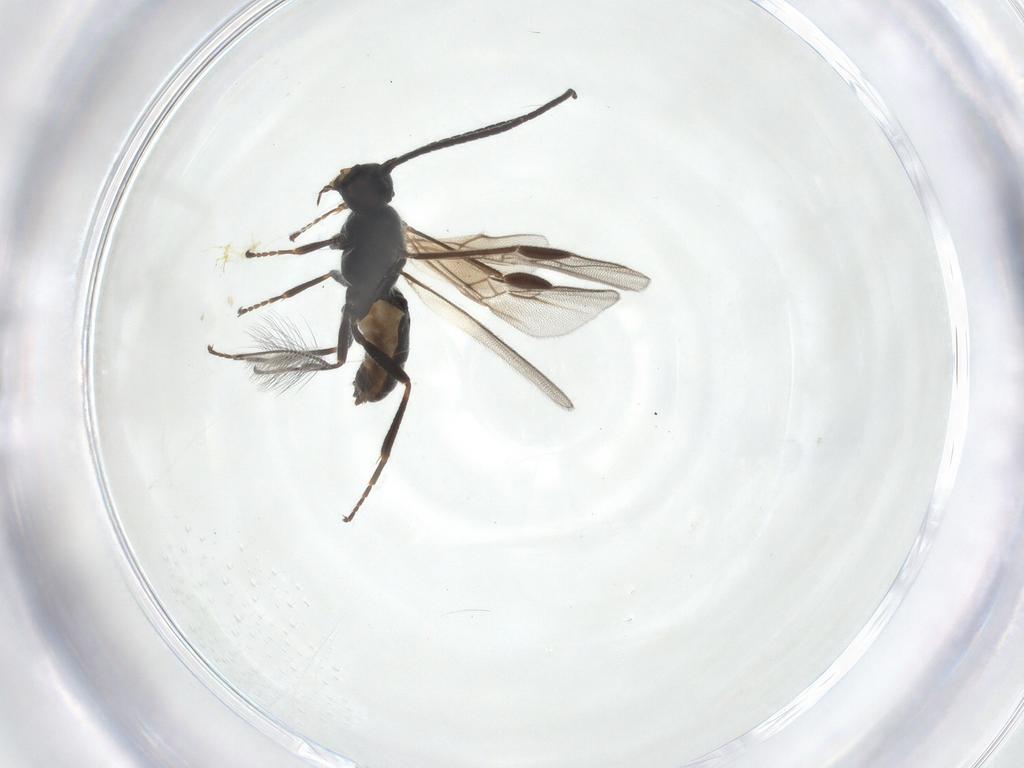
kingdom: Animalia
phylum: Arthropoda
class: Insecta
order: Hymenoptera
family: Braconidae
